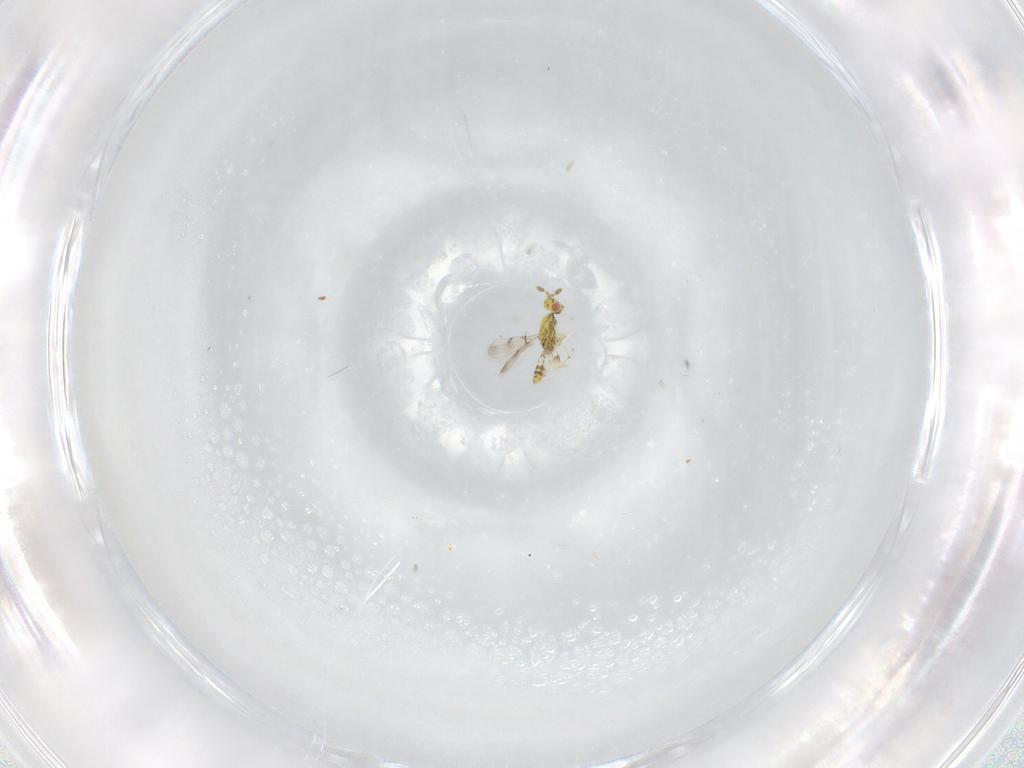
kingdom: Animalia
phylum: Arthropoda
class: Insecta
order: Hymenoptera
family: Eulophidae
